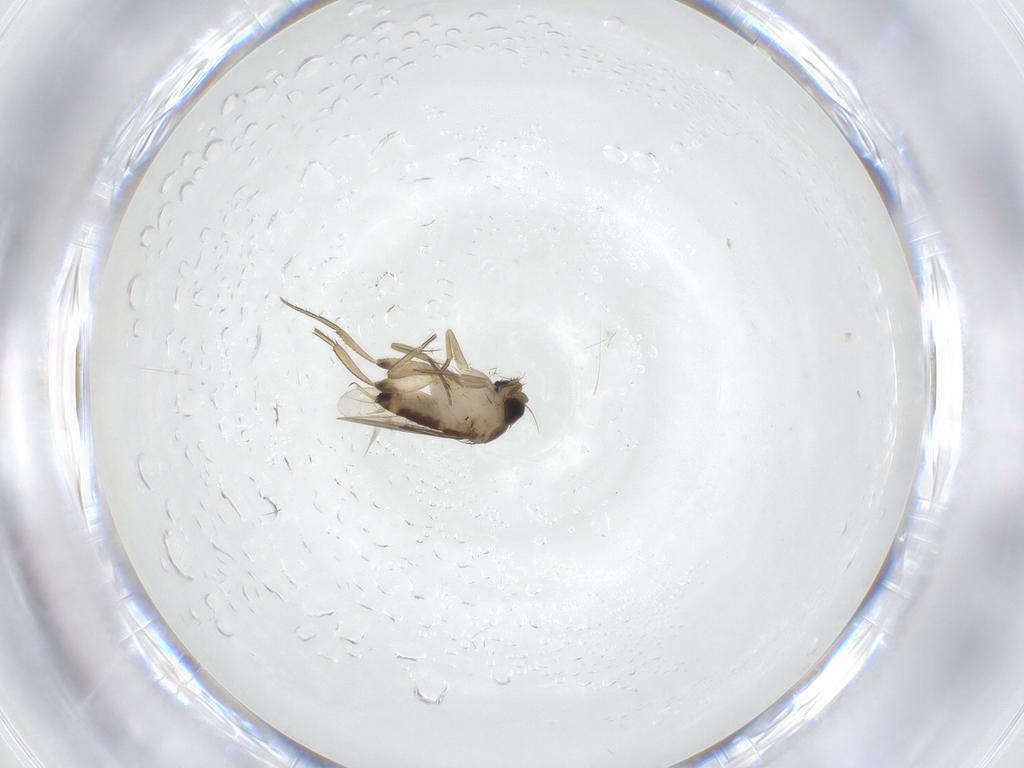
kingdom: Animalia
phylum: Arthropoda
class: Insecta
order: Diptera
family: Phoridae
